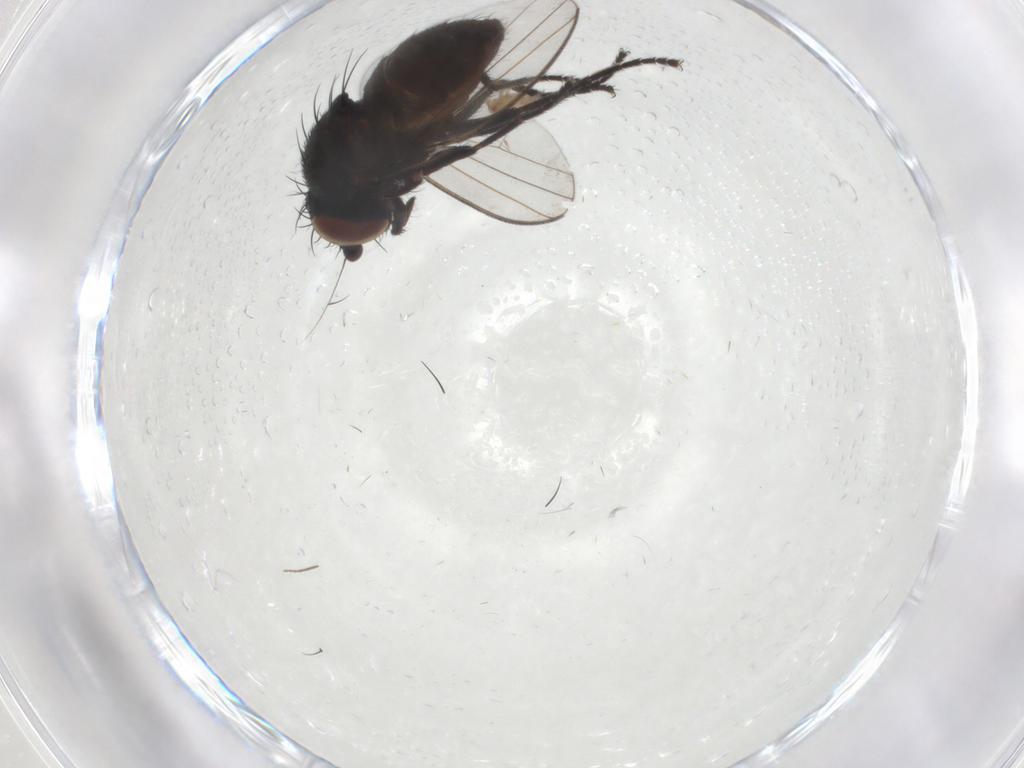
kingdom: Animalia
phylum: Arthropoda
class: Insecta
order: Diptera
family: Milichiidae
